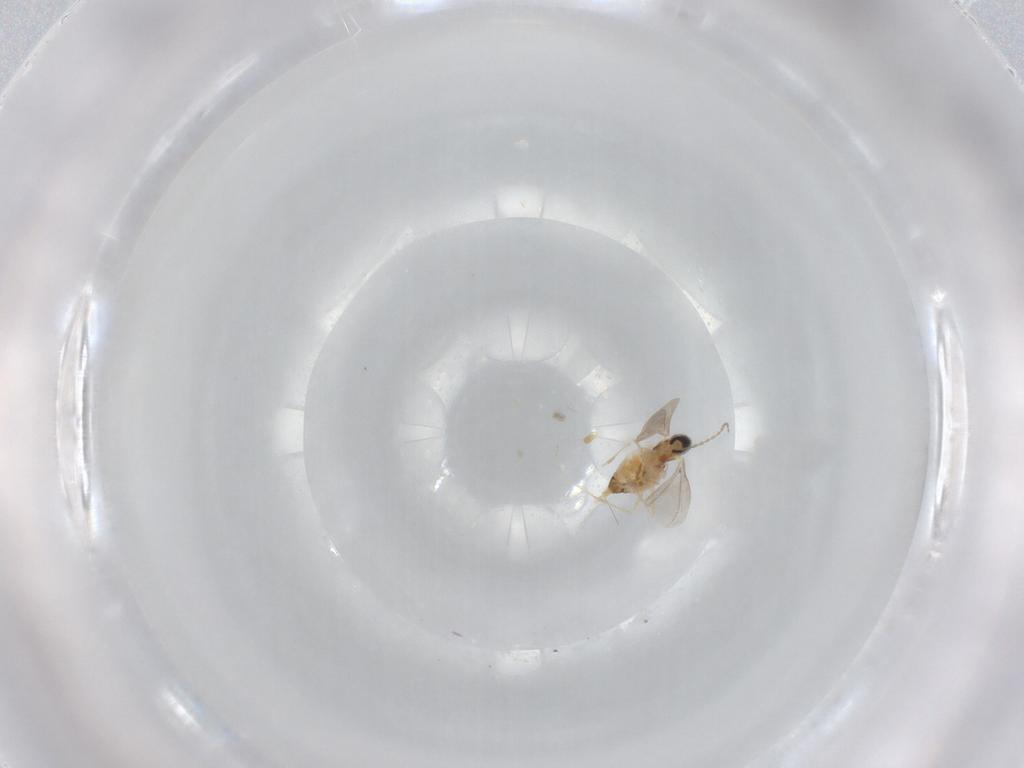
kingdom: Animalia
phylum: Arthropoda
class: Insecta
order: Diptera
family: Cecidomyiidae
